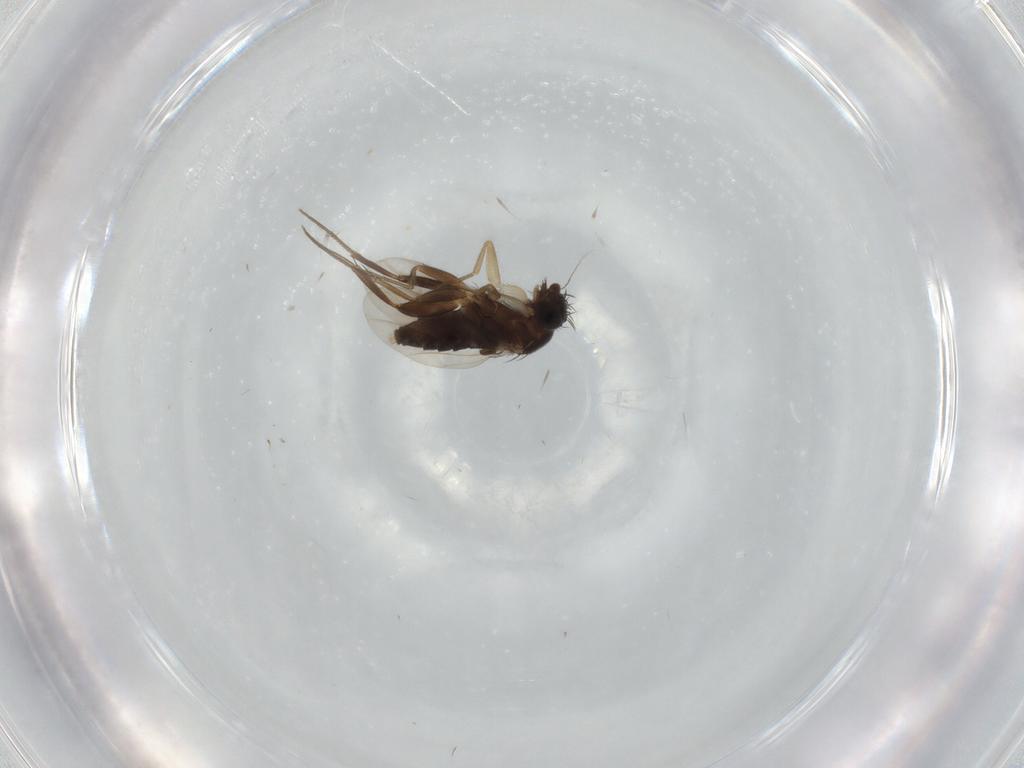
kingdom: Animalia
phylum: Arthropoda
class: Insecta
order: Diptera
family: Phoridae
